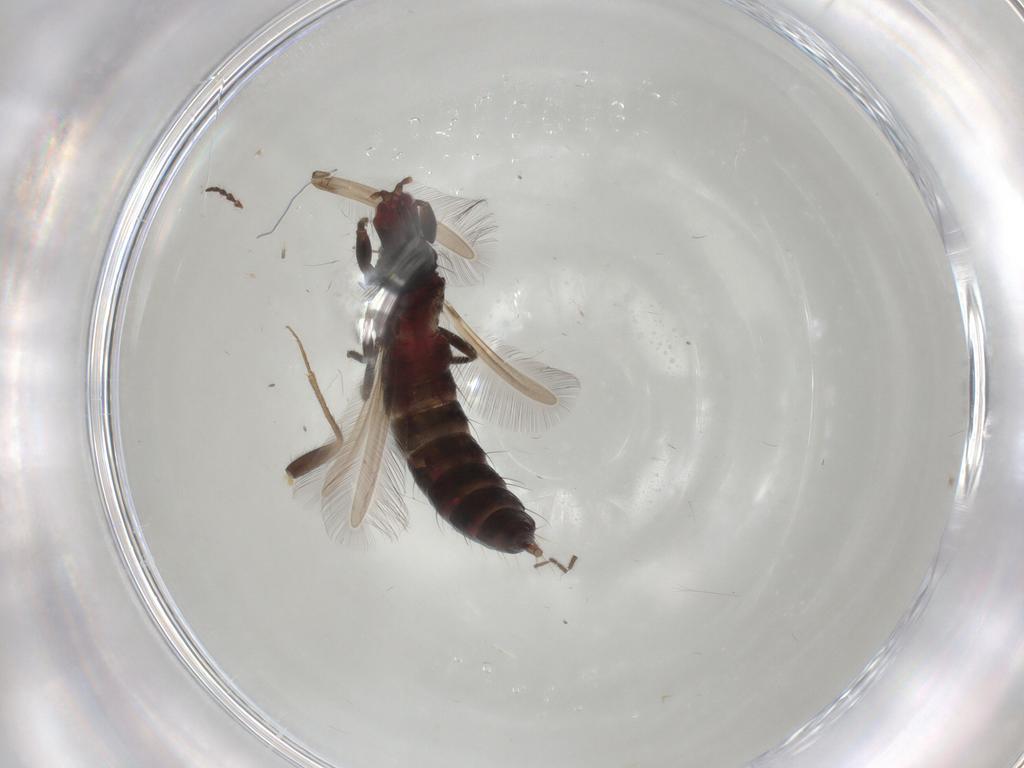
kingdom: Animalia
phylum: Arthropoda
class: Insecta
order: Thysanoptera
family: Phlaeothripidae
